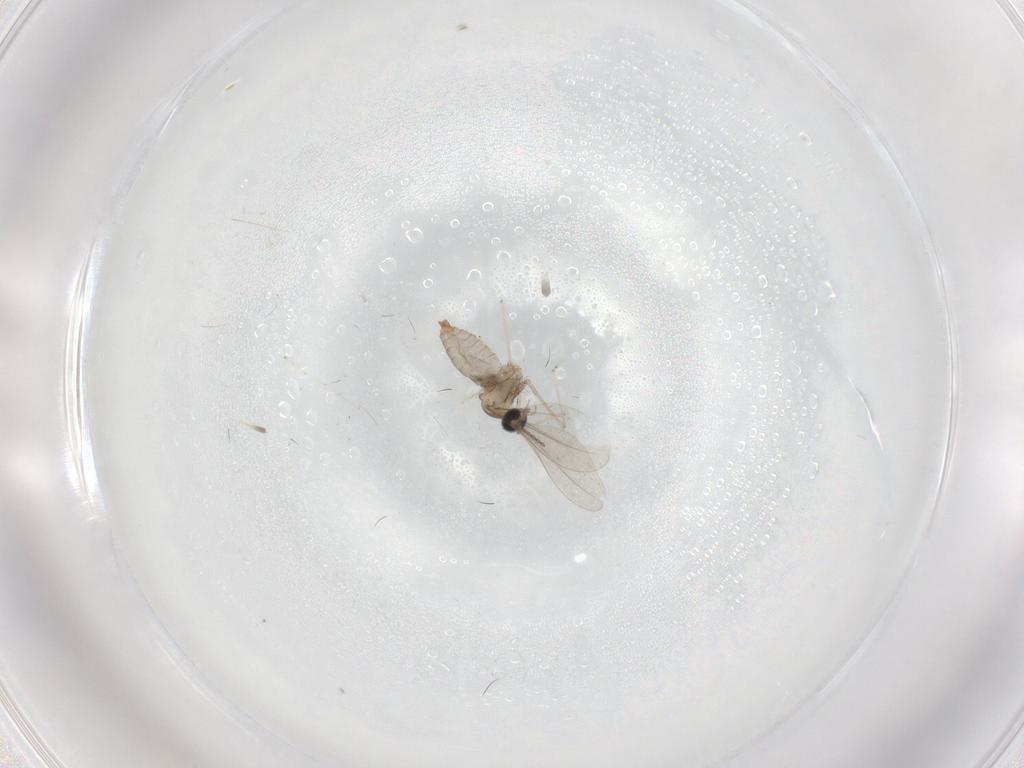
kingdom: Animalia
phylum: Arthropoda
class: Insecta
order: Diptera
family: Cecidomyiidae
